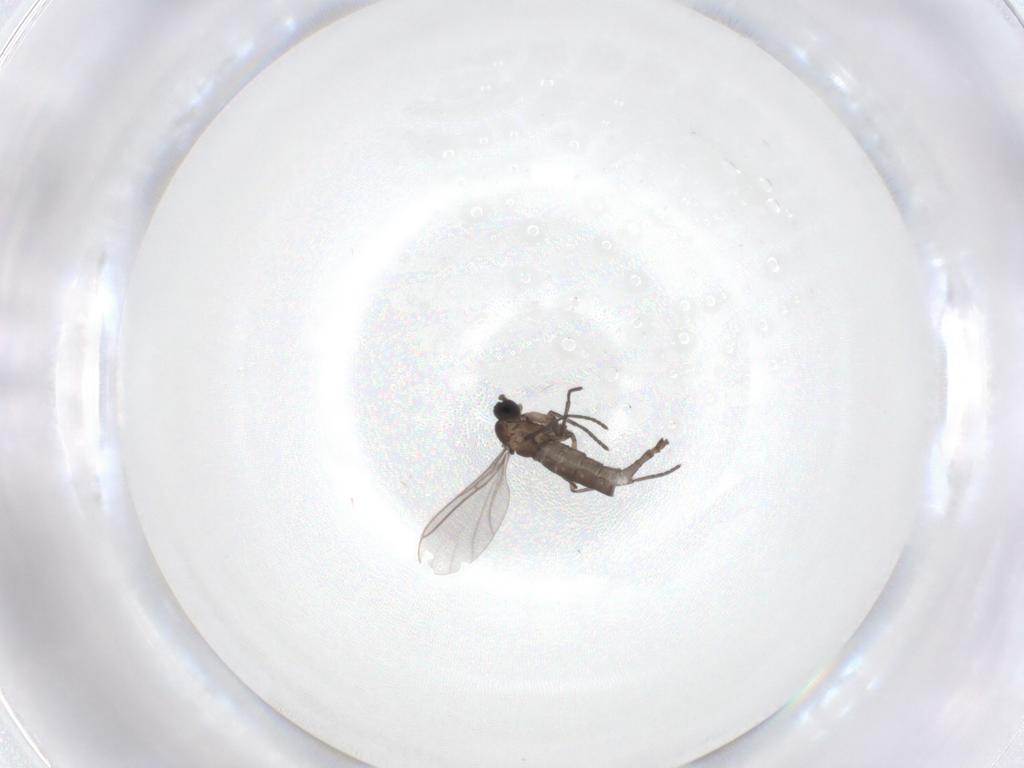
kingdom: Animalia
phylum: Arthropoda
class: Insecta
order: Diptera
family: Sciaridae
